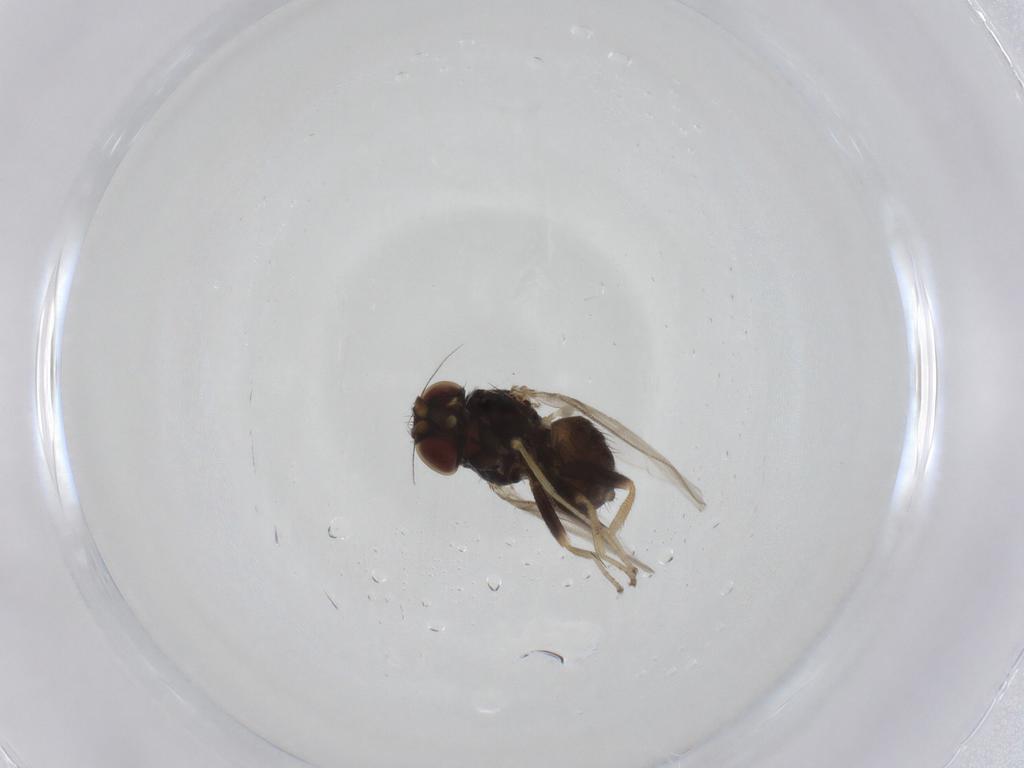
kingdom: Animalia
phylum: Arthropoda
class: Insecta
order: Diptera
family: Milichiidae
